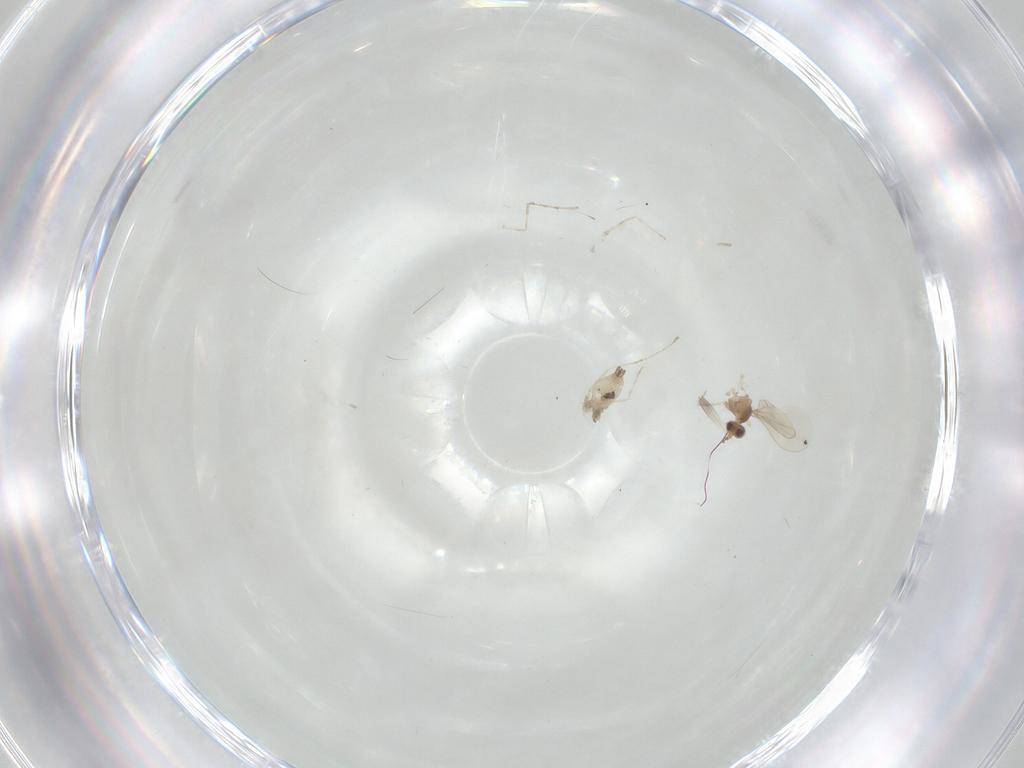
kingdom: Animalia
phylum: Arthropoda
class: Insecta
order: Diptera
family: Cecidomyiidae
